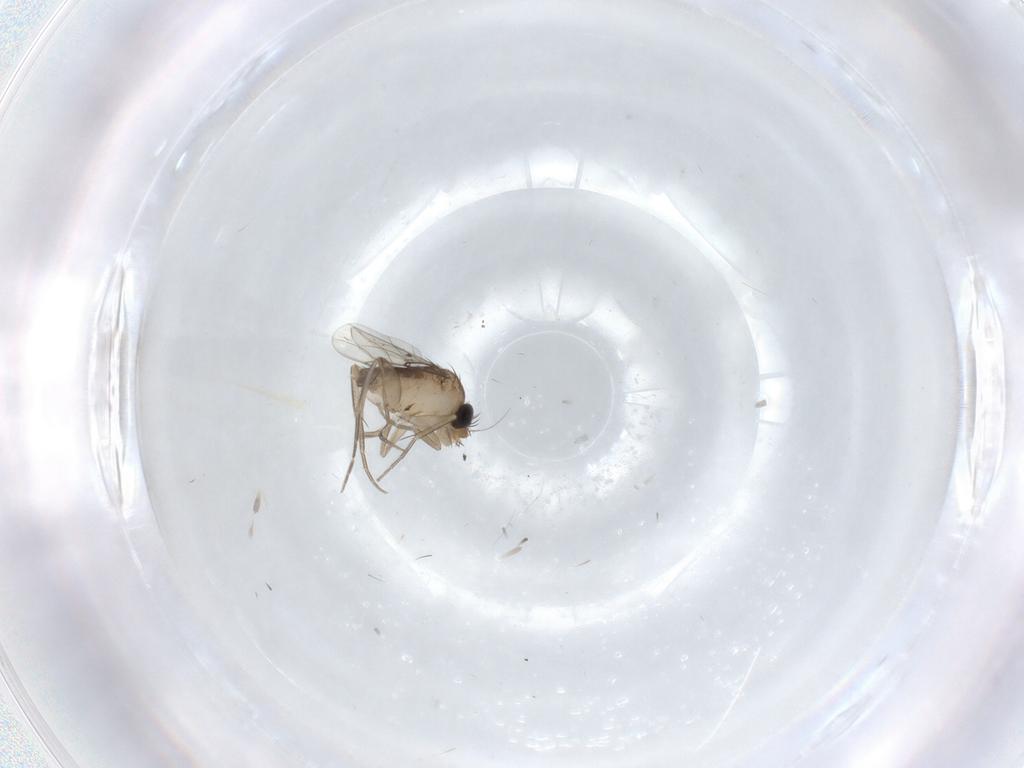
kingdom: Animalia
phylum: Arthropoda
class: Insecta
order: Diptera
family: Phoridae
